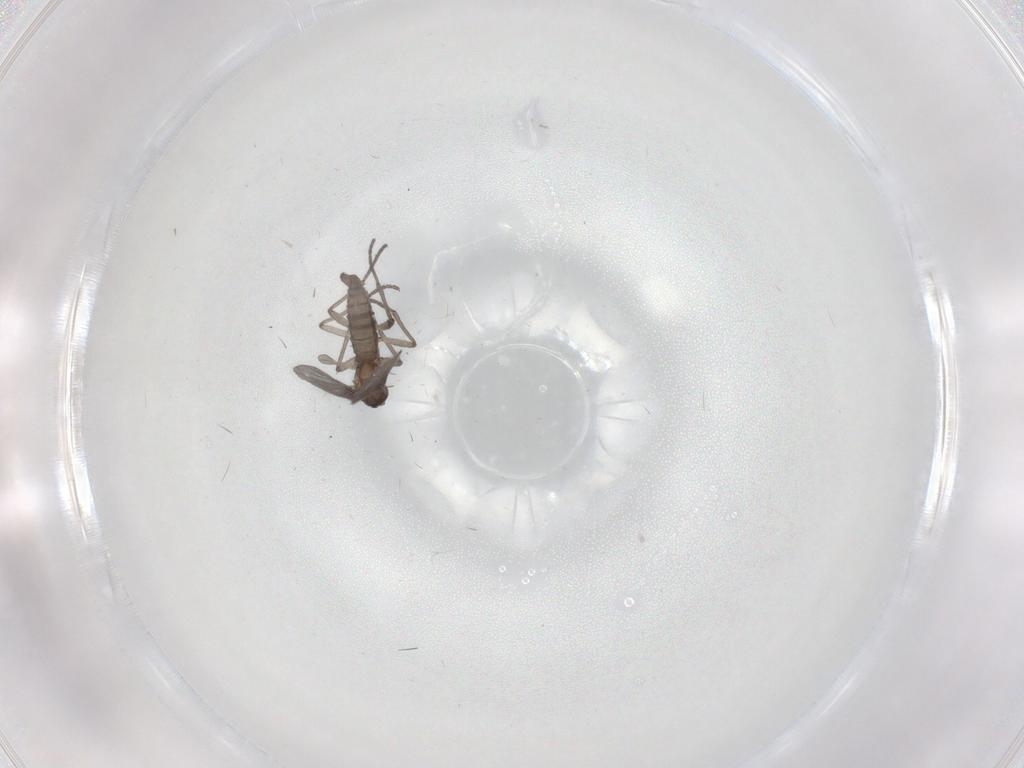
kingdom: Animalia
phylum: Arthropoda
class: Insecta
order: Diptera
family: Sciaridae
